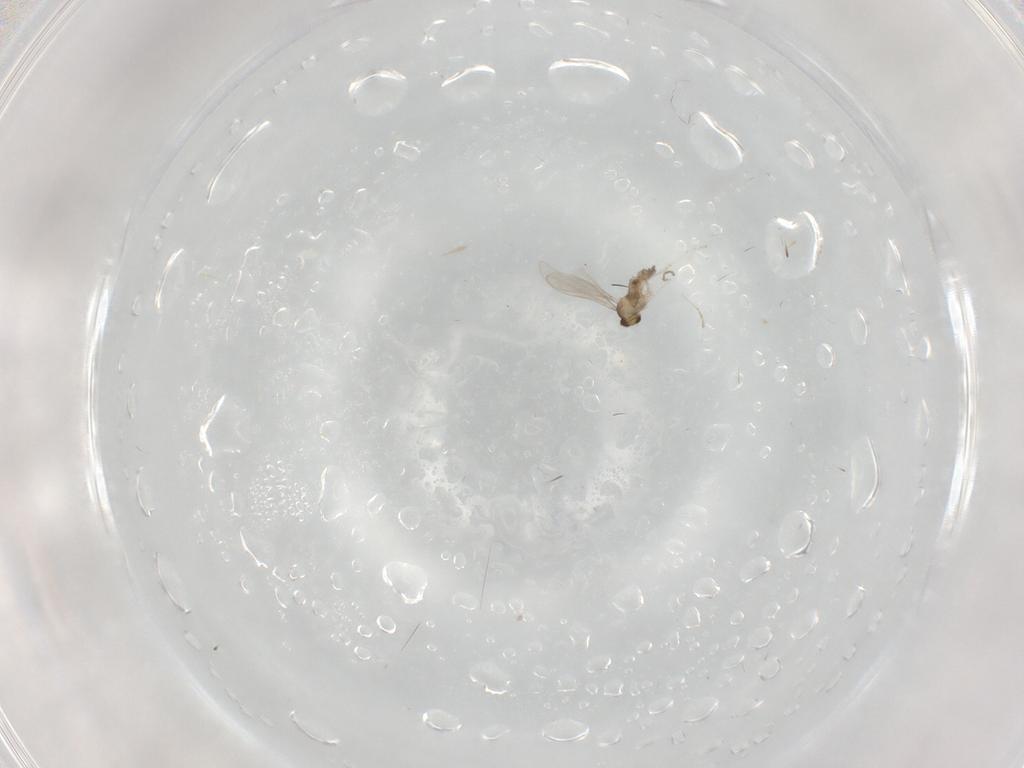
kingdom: Animalia
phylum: Arthropoda
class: Insecta
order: Diptera
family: Cecidomyiidae
